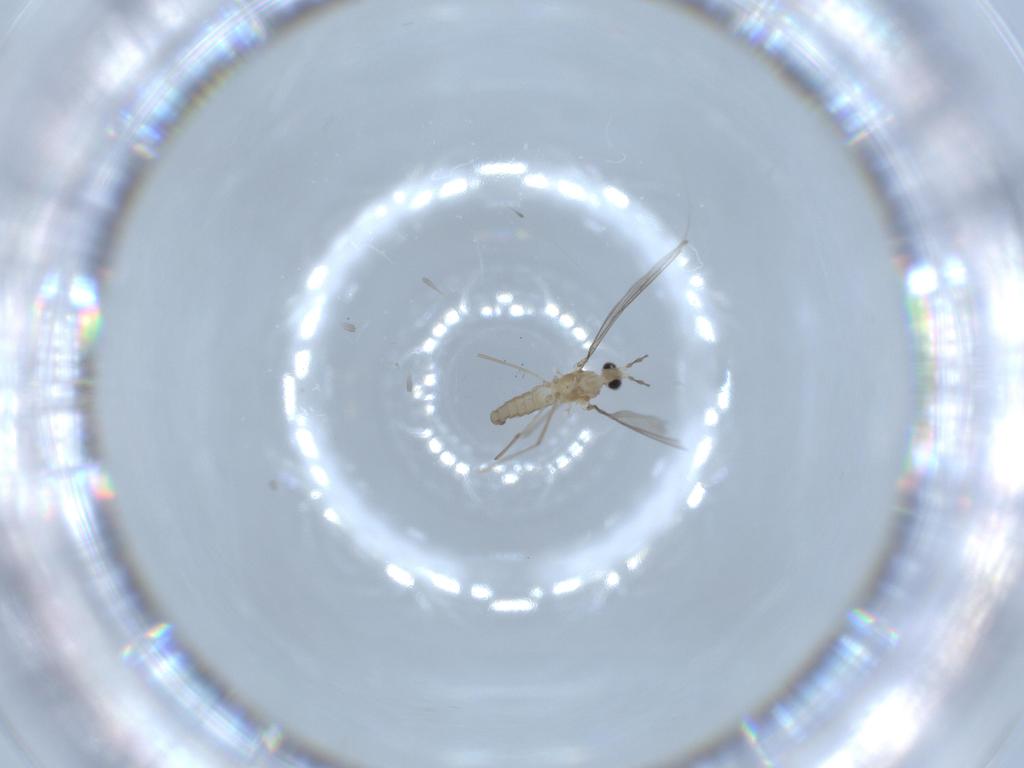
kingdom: Animalia
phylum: Arthropoda
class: Insecta
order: Diptera
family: Cecidomyiidae
